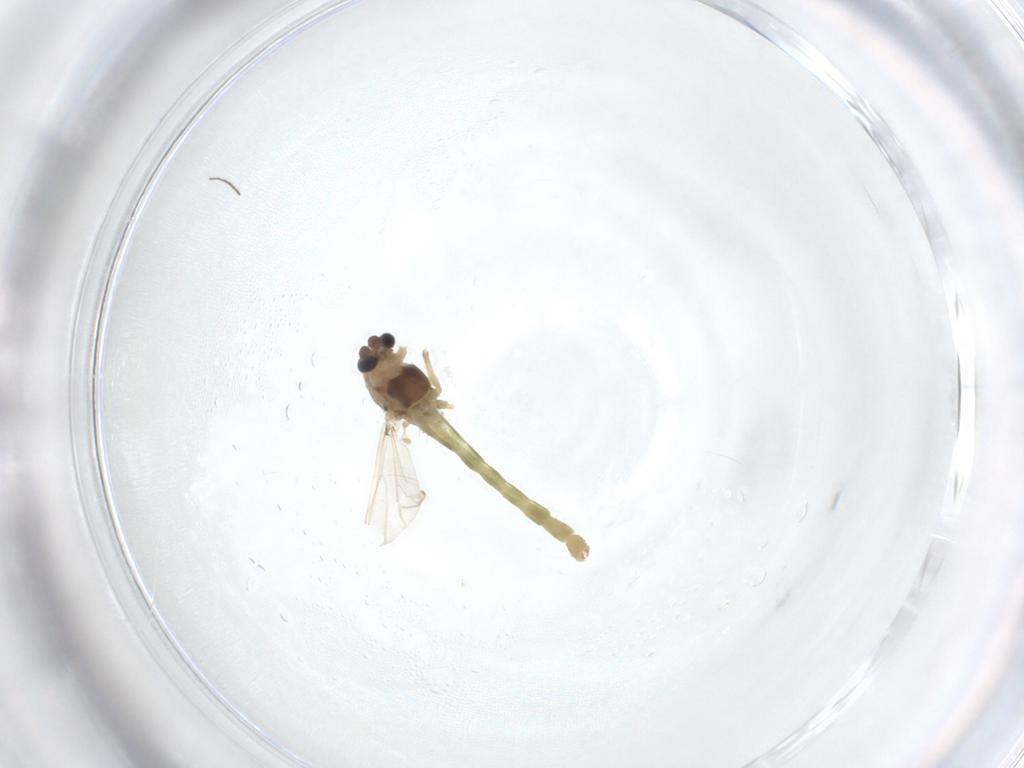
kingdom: Animalia
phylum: Arthropoda
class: Insecta
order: Diptera
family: Chironomidae
